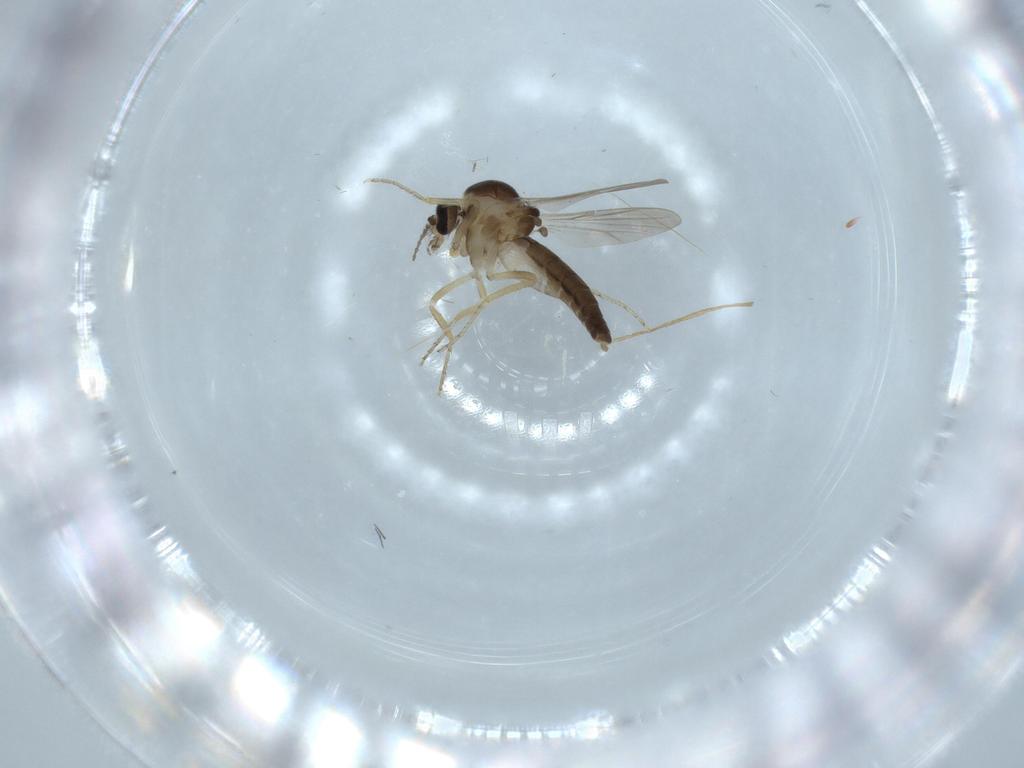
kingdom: Animalia
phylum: Arthropoda
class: Insecta
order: Diptera
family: Ceratopogonidae
